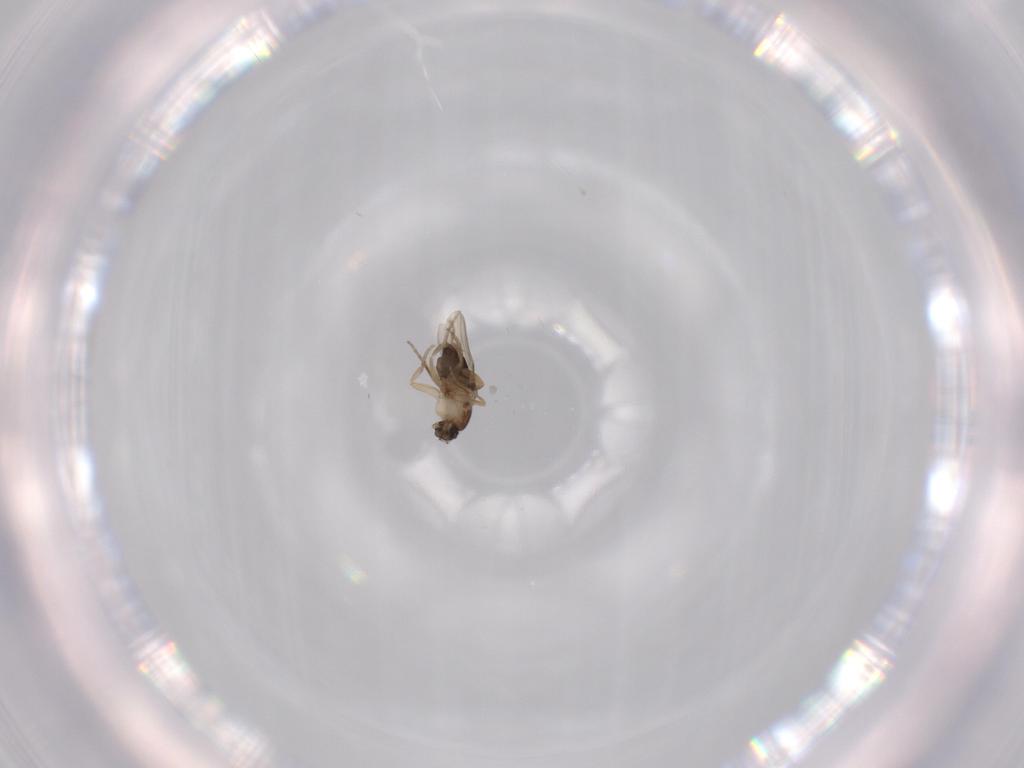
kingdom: Animalia
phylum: Arthropoda
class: Insecta
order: Diptera
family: Phoridae
